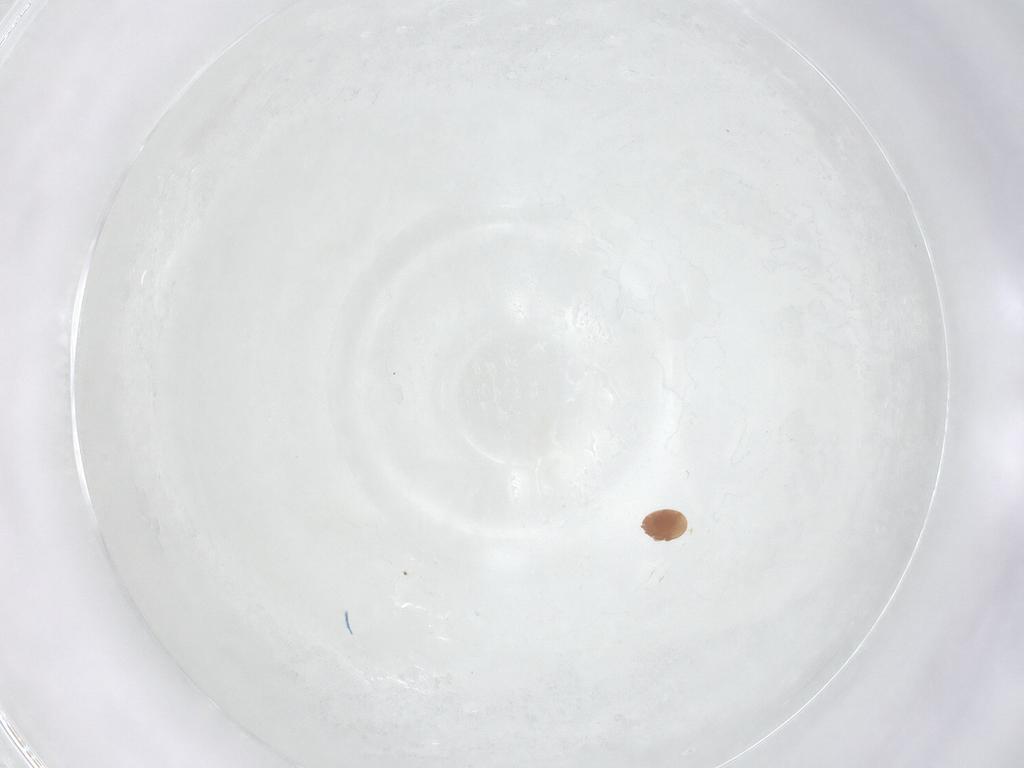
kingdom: Animalia
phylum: Arthropoda
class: Arachnida
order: Mesostigmata
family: Trematuridae
